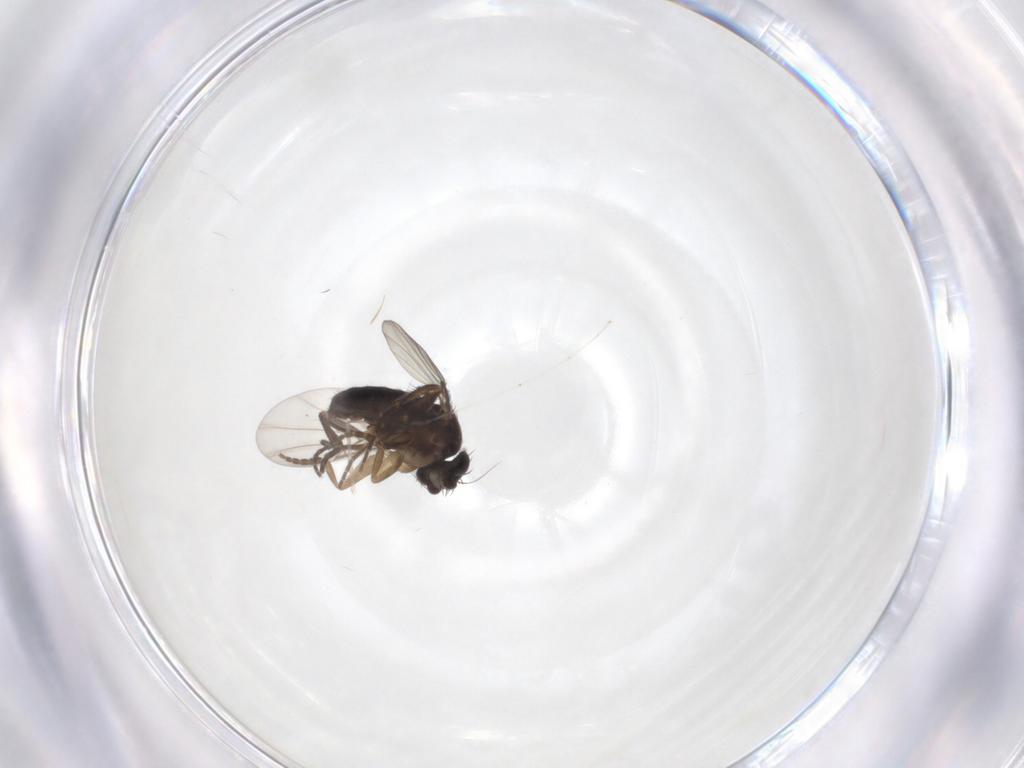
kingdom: Animalia
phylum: Arthropoda
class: Insecta
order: Diptera
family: Phoridae
